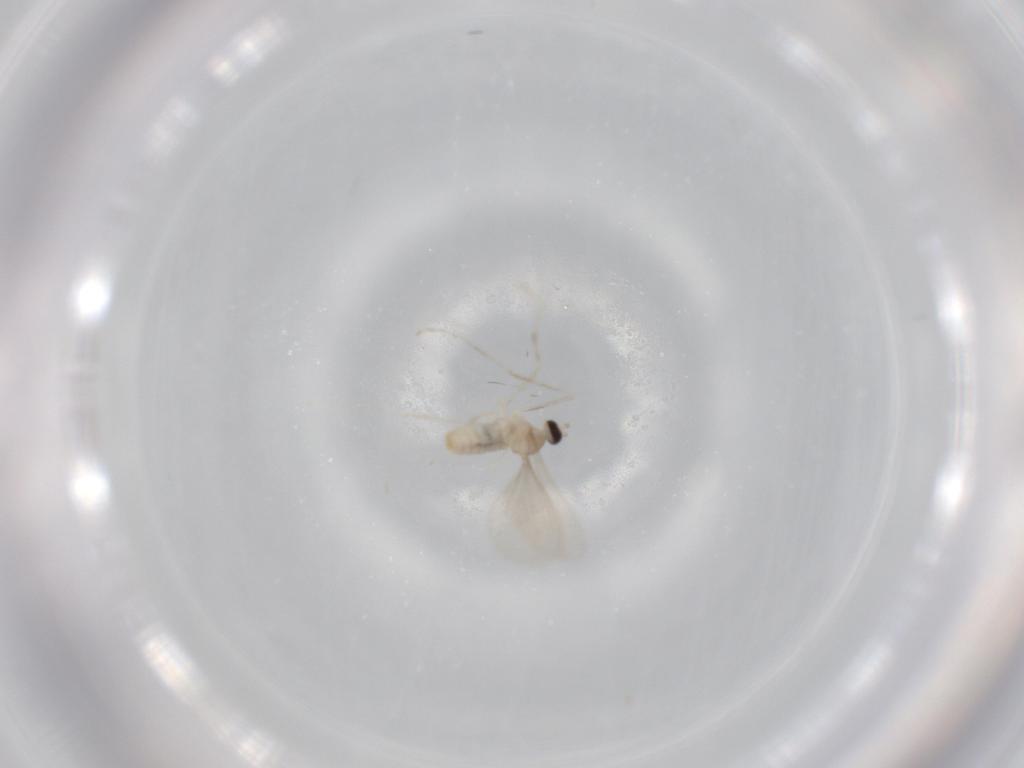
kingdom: Animalia
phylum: Arthropoda
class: Insecta
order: Diptera
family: Cecidomyiidae
